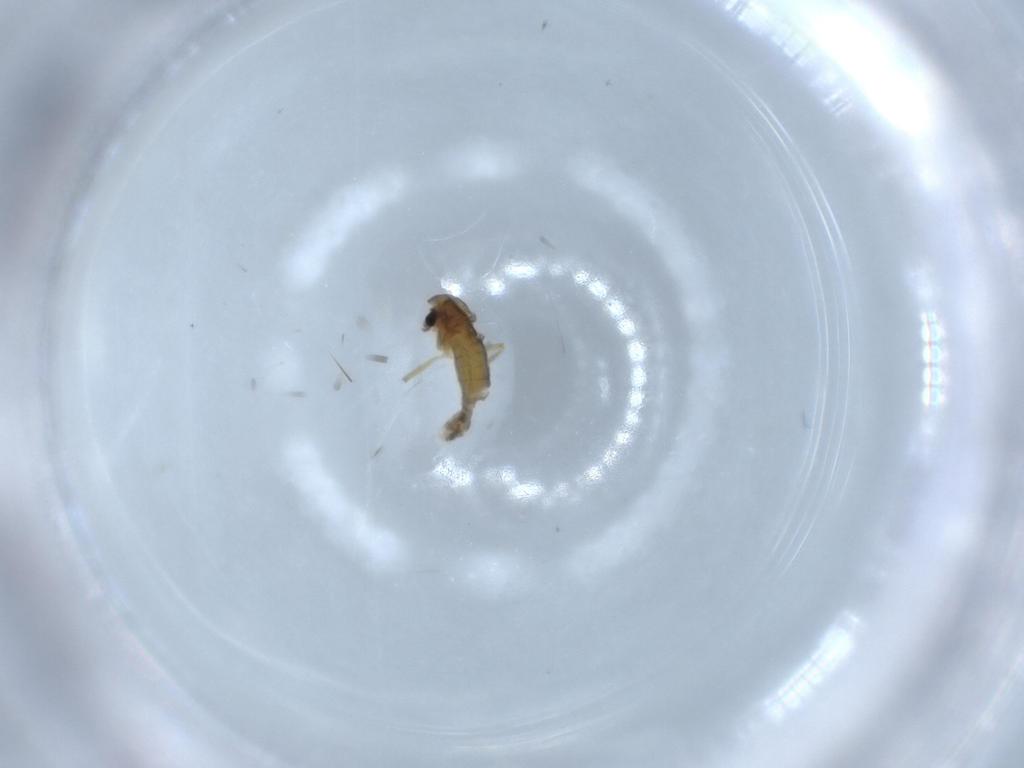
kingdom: Animalia
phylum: Arthropoda
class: Insecta
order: Diptera
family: Chironomidae
